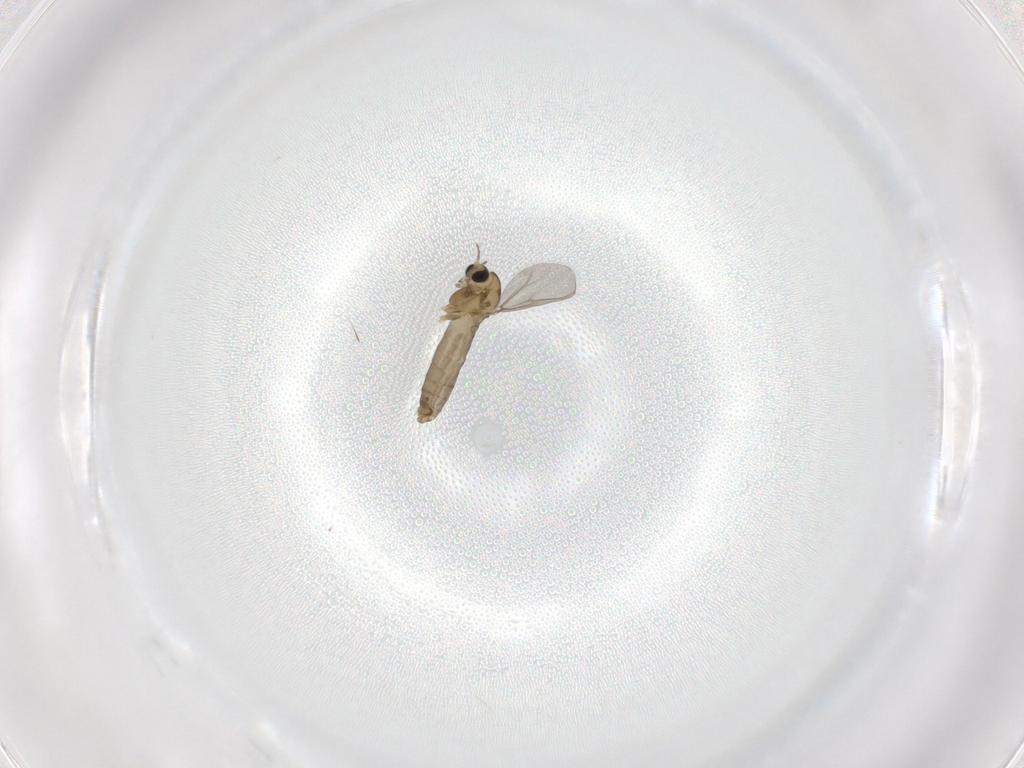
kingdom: Animalia
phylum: Arthropoda
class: Insecta
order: Diptera
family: Chironomidae
